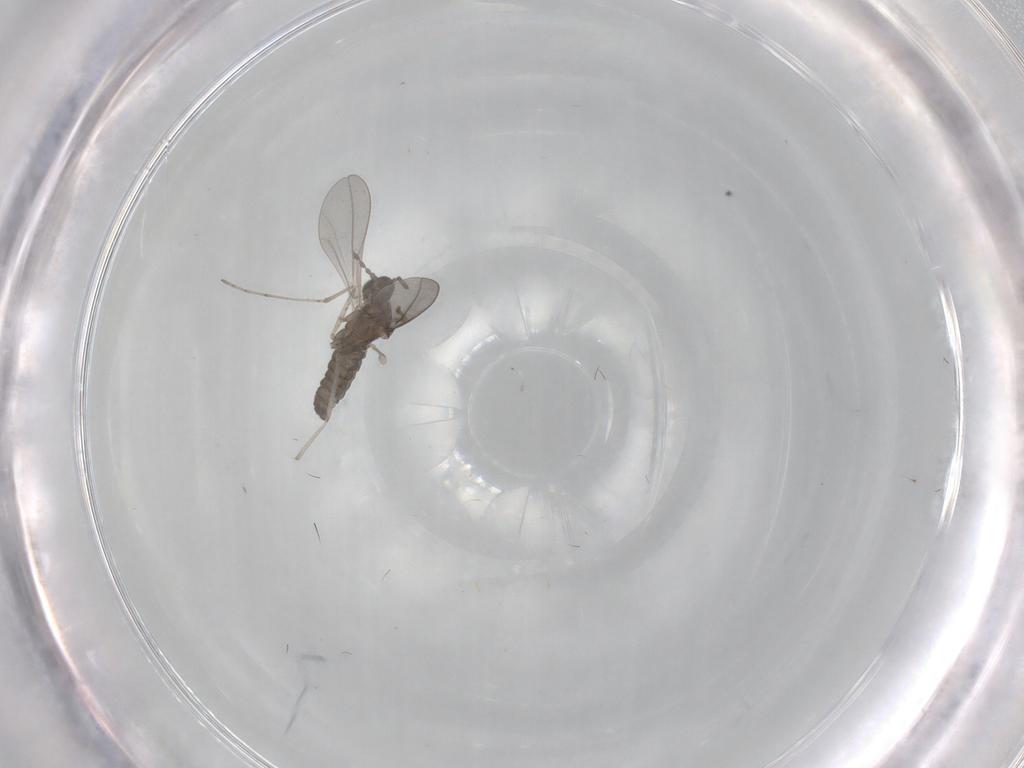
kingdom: Animalia
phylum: Arthropoda
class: Insecta
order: Diptera
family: Cecidomyiidae
